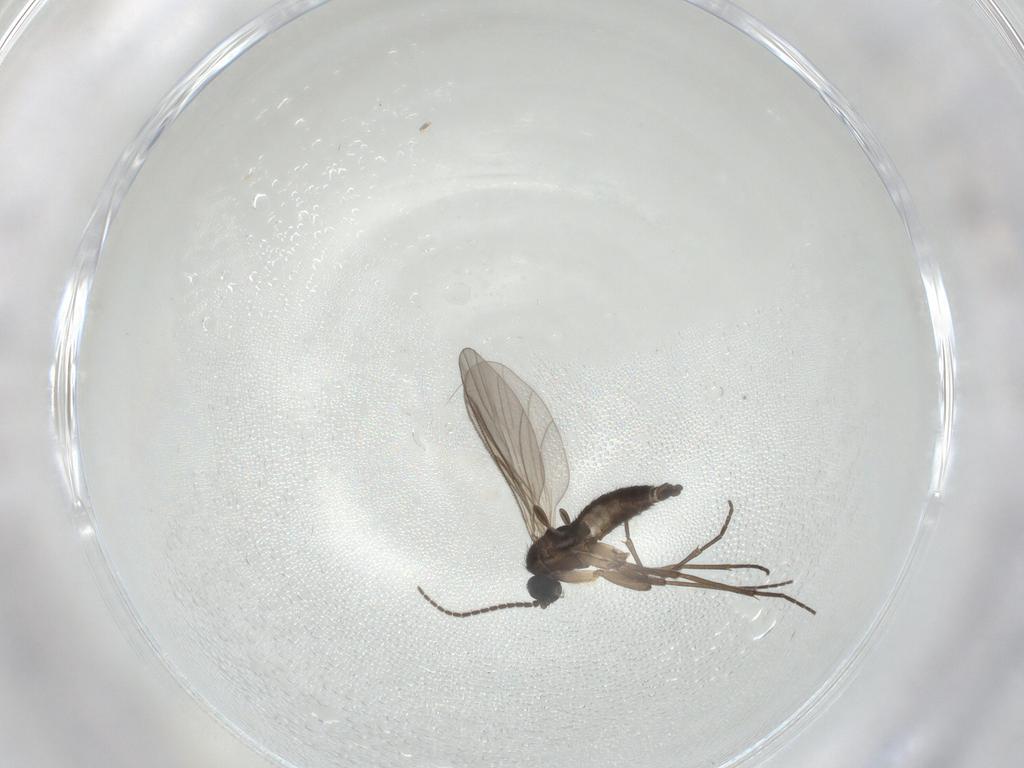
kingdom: Animalia
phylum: Arthropoda
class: Insecta
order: Diptera
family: Sciaridae
